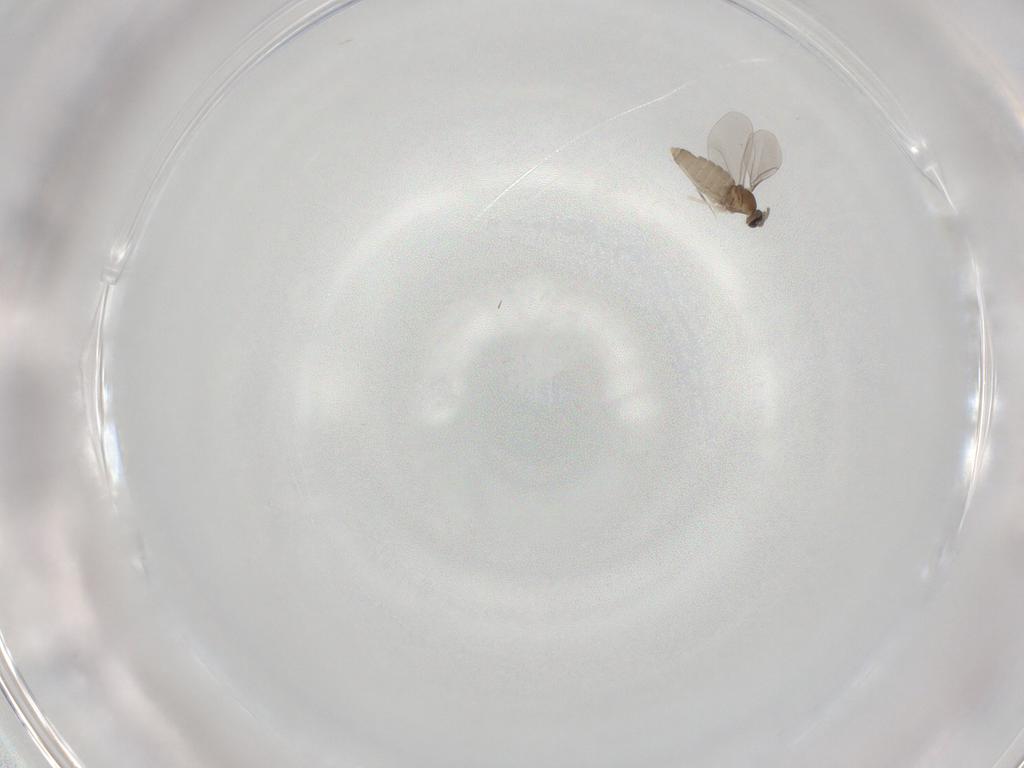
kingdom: Animalia
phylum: Arthropoda
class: Insecta
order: Diptera
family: Cecidomyiidae
